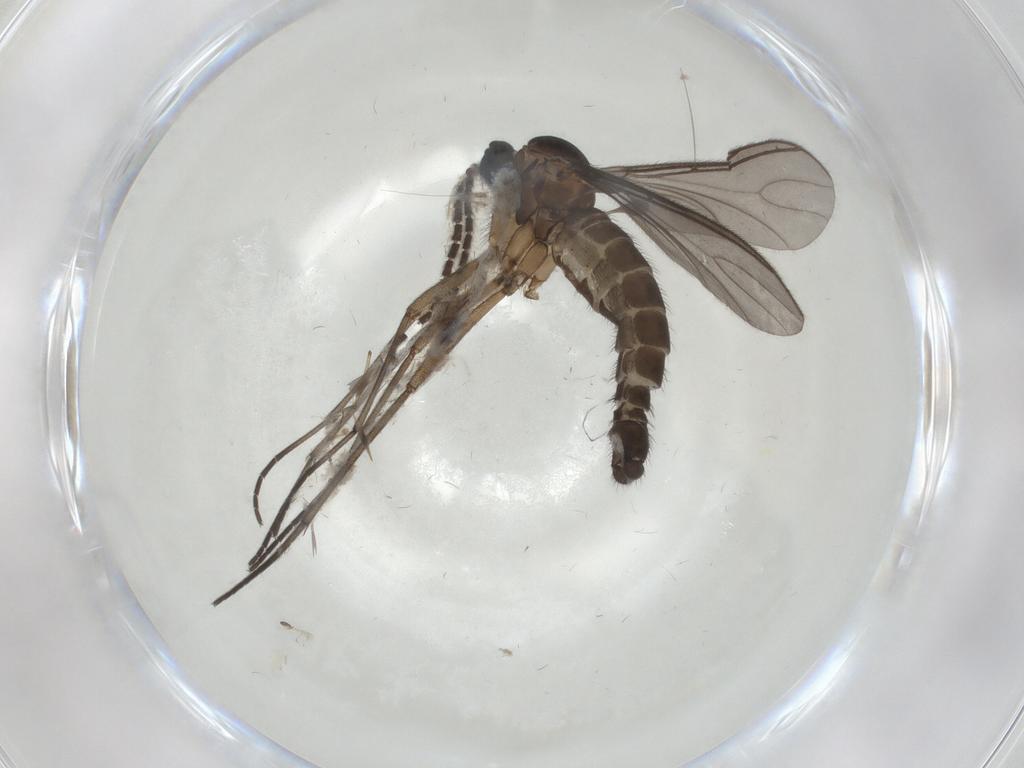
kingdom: Animalia
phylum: Arthropoda
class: Insecta
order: Diptera
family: Sciaridae
